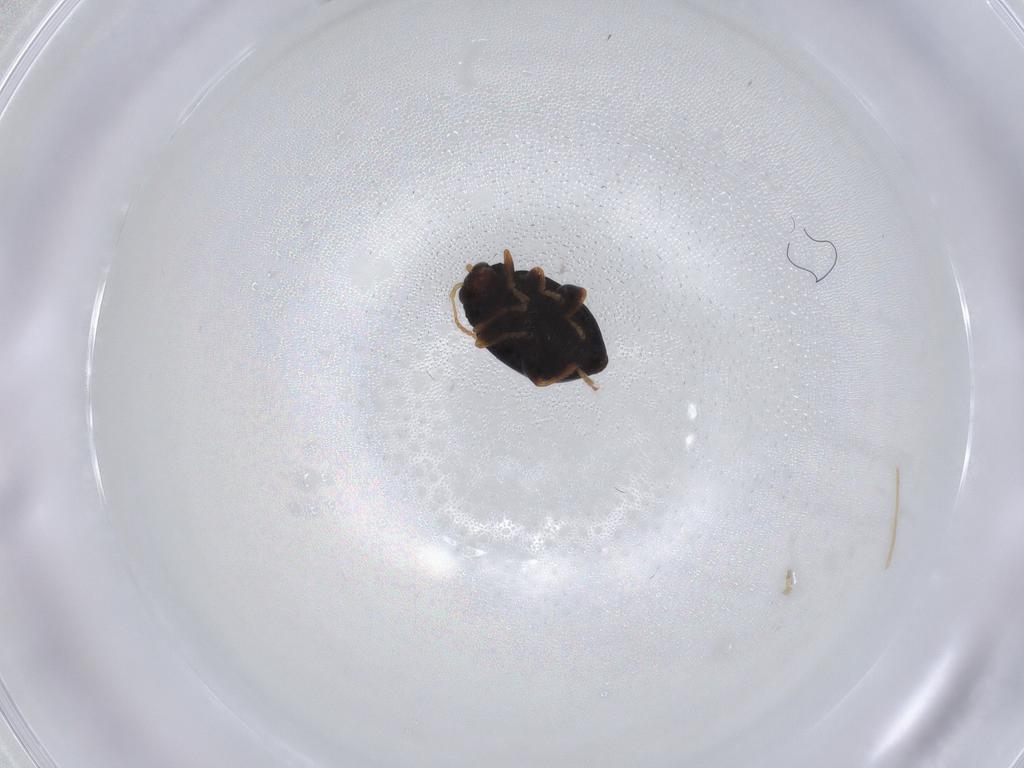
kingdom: Animalia
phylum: Arthropoda
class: Insecta
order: Coleoptera
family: Chrysomelidae
